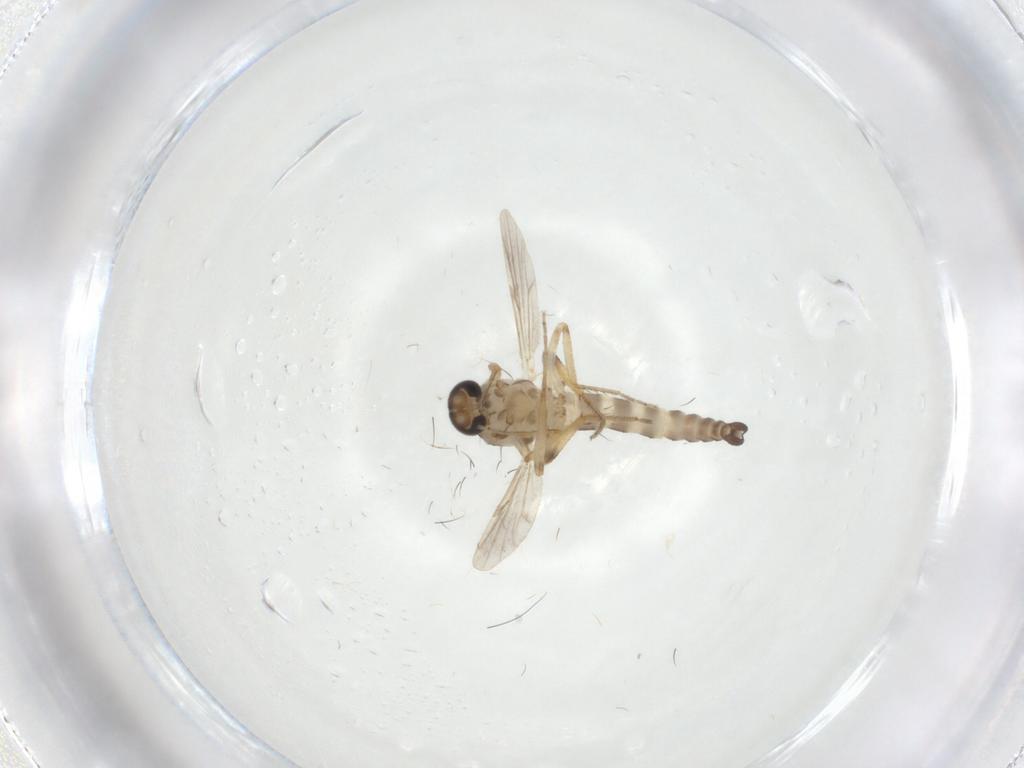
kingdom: Animalia
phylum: Arthropoda
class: Insecta
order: Diptera
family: Ceratopogonidae
